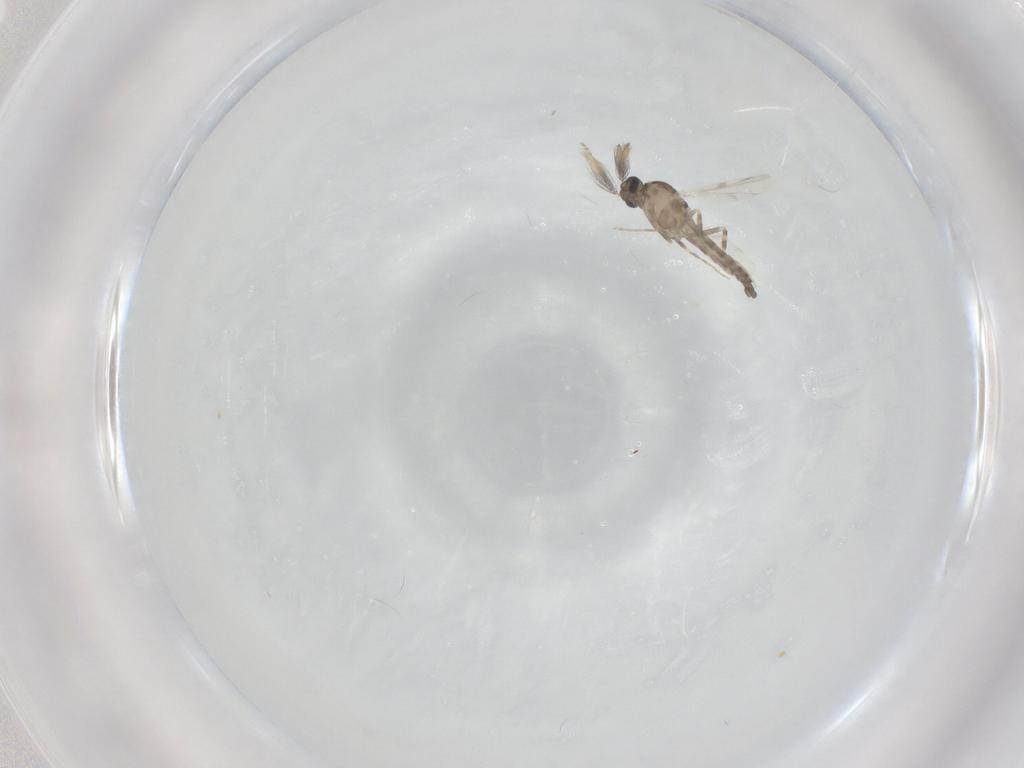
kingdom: Animalia
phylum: Arthropoda
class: Insecta
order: Diptera
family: Ceratopogonidae
